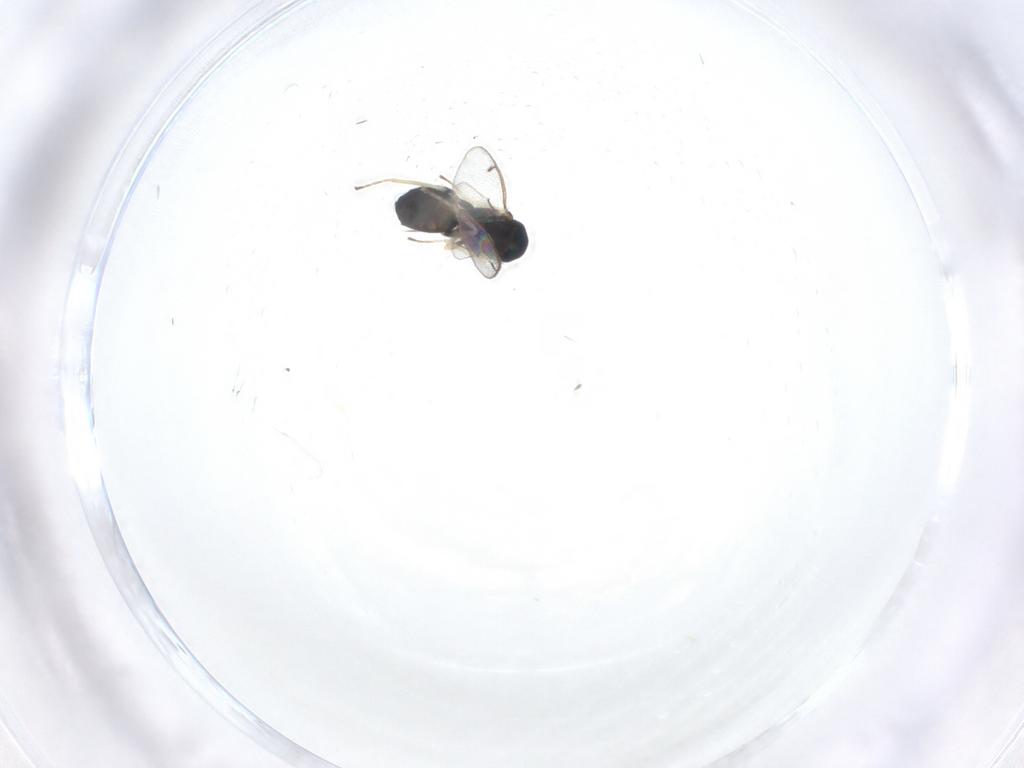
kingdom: Animalia
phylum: Arthropoda
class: Insecta
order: Hymenoptera
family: Eulophidae
